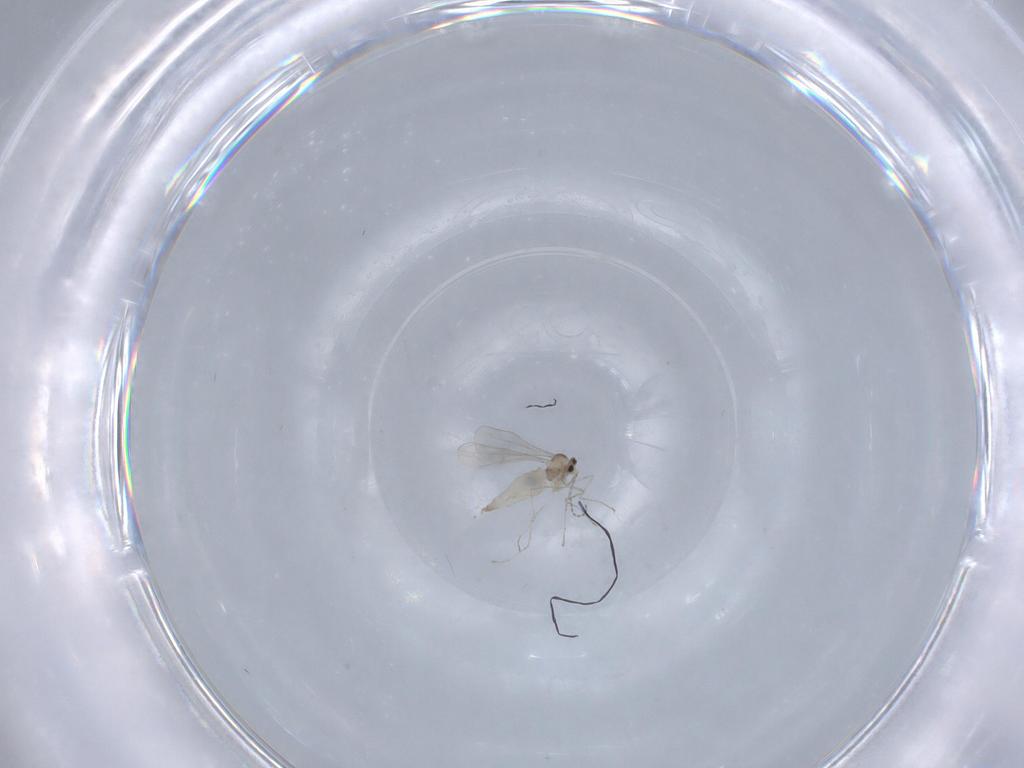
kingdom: Animalia
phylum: Arthropoda
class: Insecta
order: Diptera
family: Cecidomyiidae
